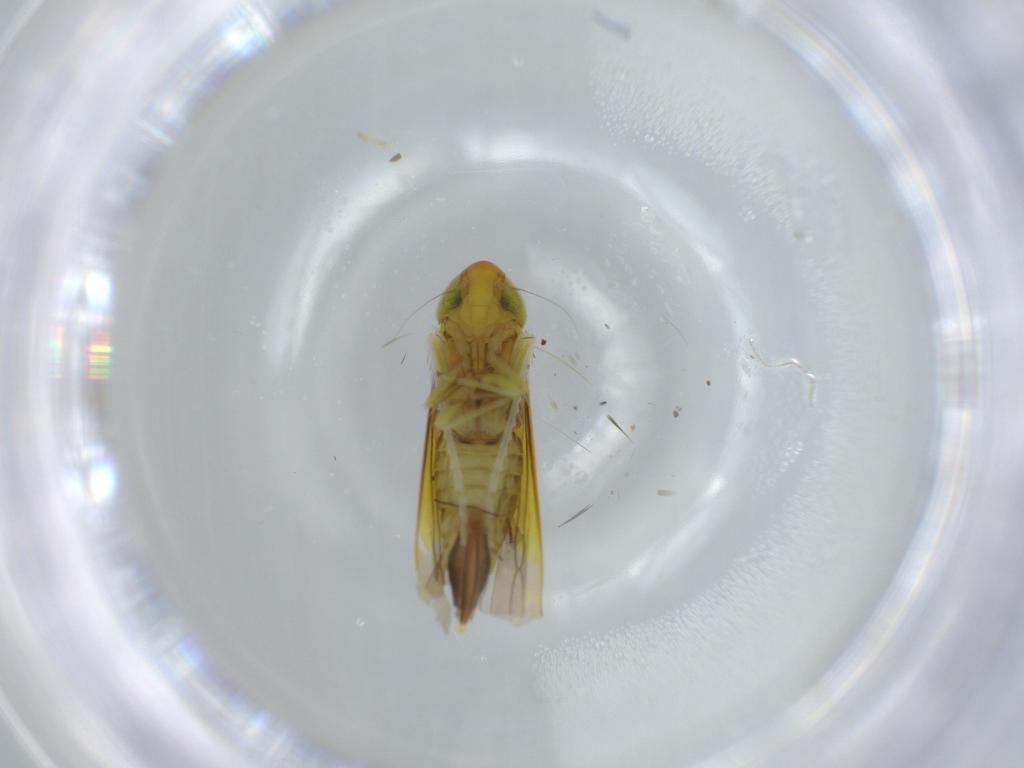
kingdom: Animalia
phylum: Arthropoda
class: Insecta
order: Hemiptera
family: Cicadellidae
